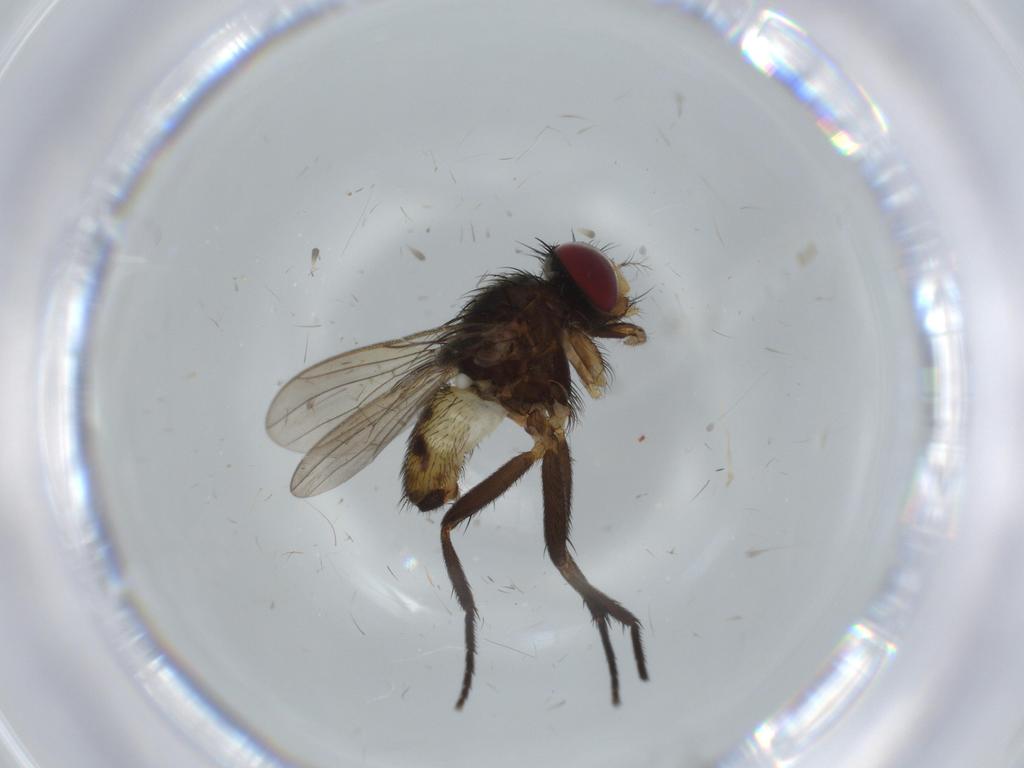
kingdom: Animalia
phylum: Arthropoda
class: Insecta
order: Diptera
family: Anthomyiidae
